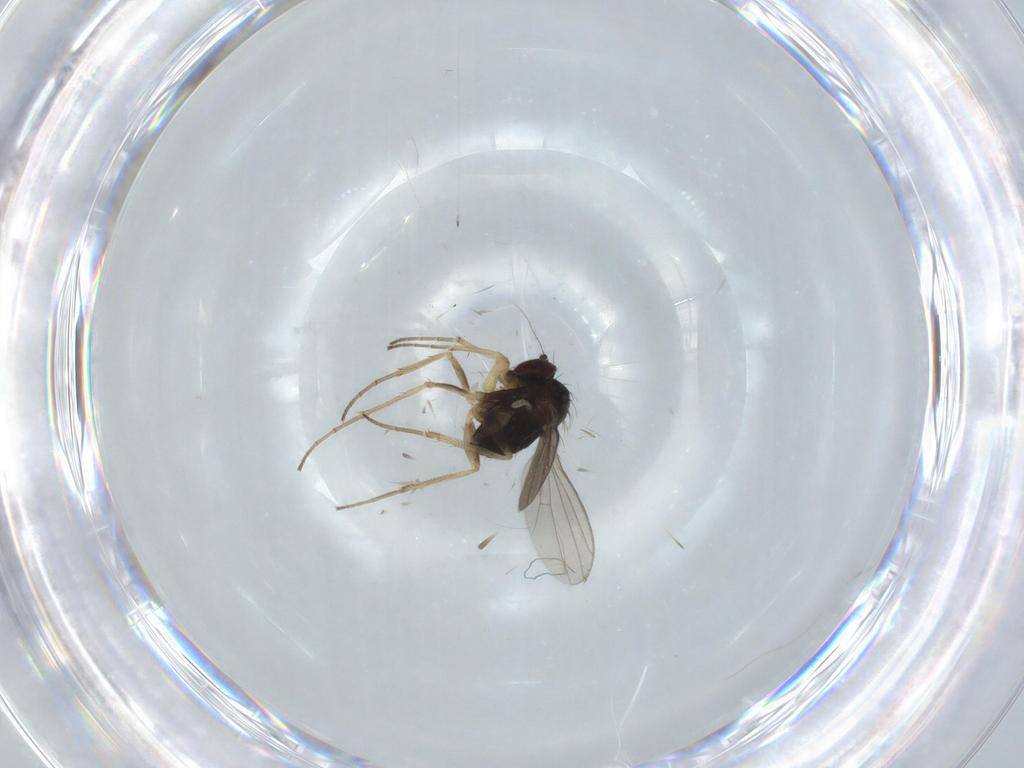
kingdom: Animalia
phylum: Arthropoda
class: Insecta
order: Diptera
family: Dolichopodidae
